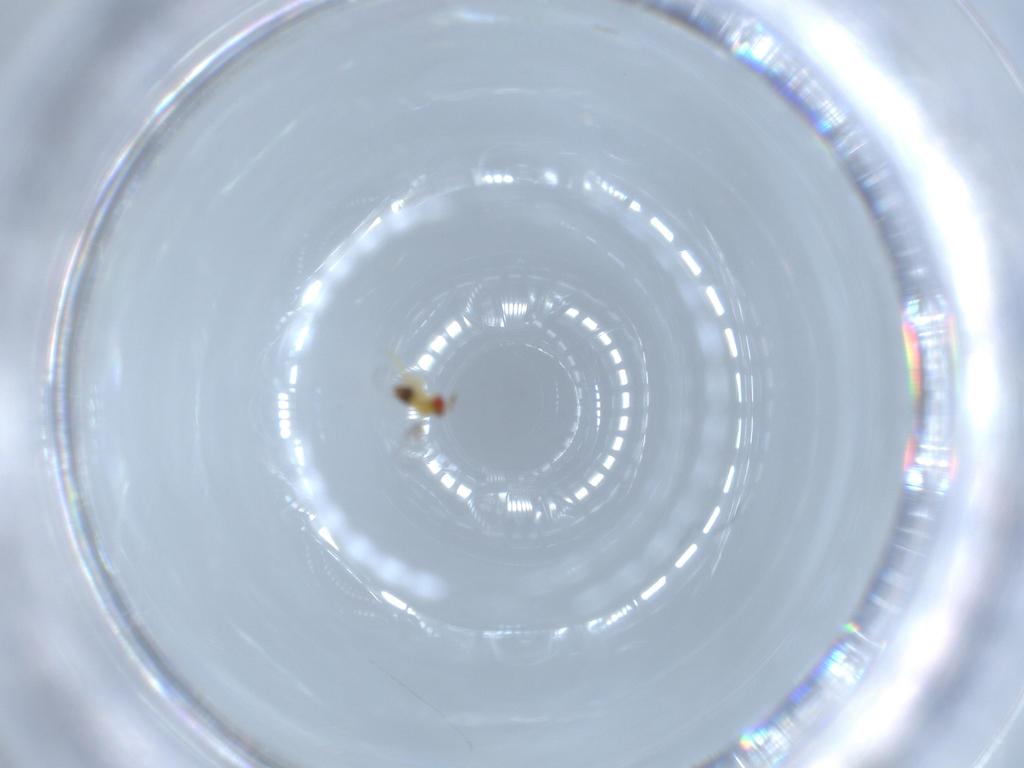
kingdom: Animalia
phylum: Arthropoda
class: Insecta
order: Hymenoptera
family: Trichogrammatidae
